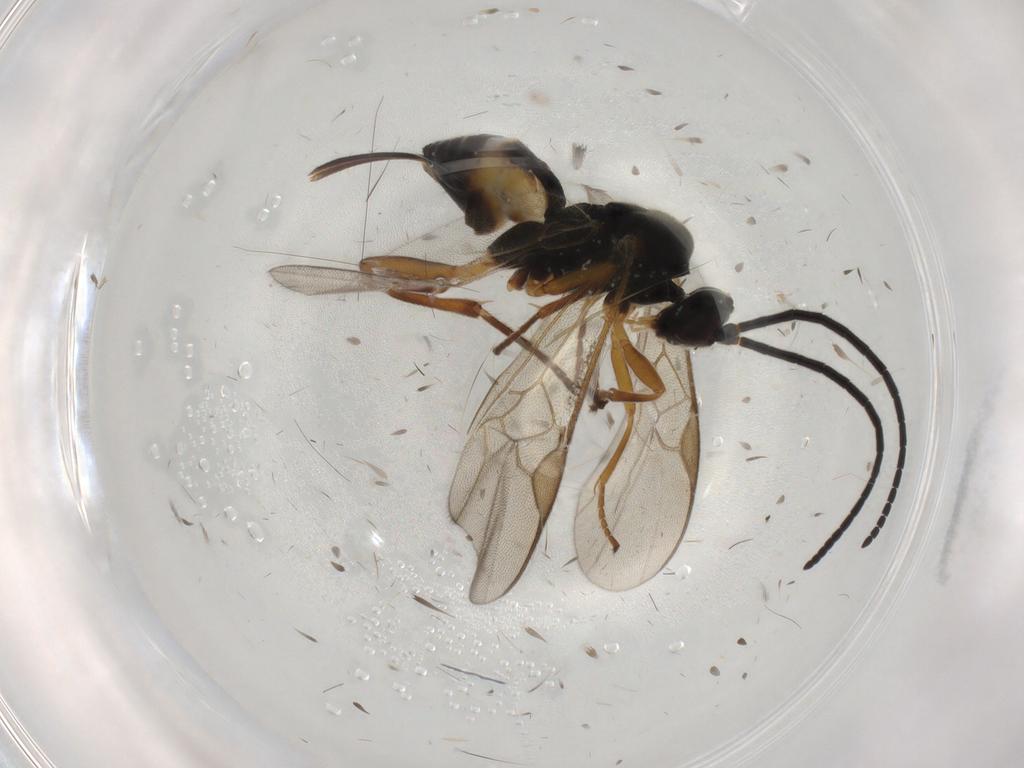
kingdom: Animalia
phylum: Arthropoda
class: Insecta
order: Hymenoptera
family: Braconidae
